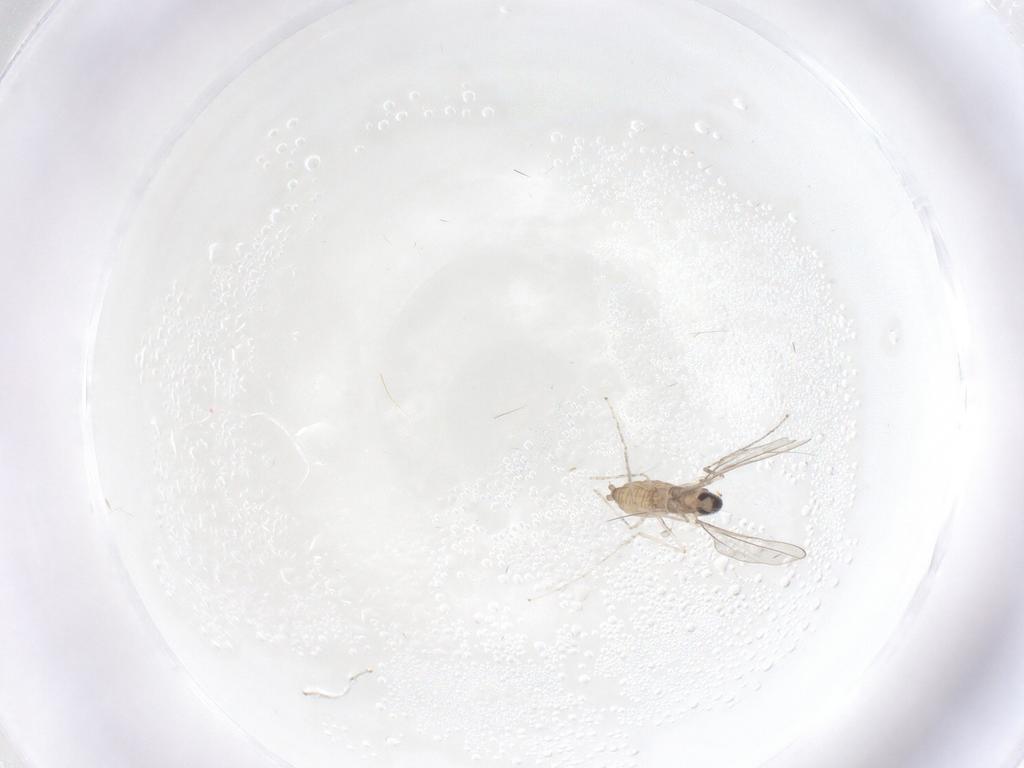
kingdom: Animalia
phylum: Arthropoda
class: Insecta
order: Diptera
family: Cecidomyiidae
